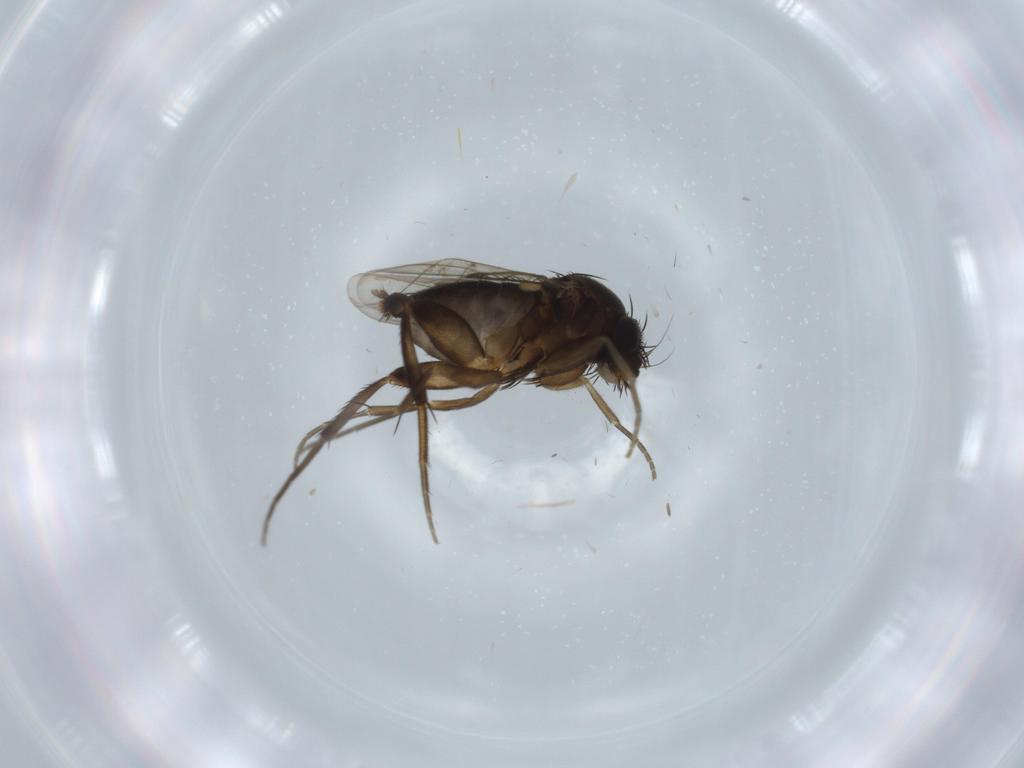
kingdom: Animalia
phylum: Arthropoda
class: Insecta
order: Diptera
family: Phoridae
